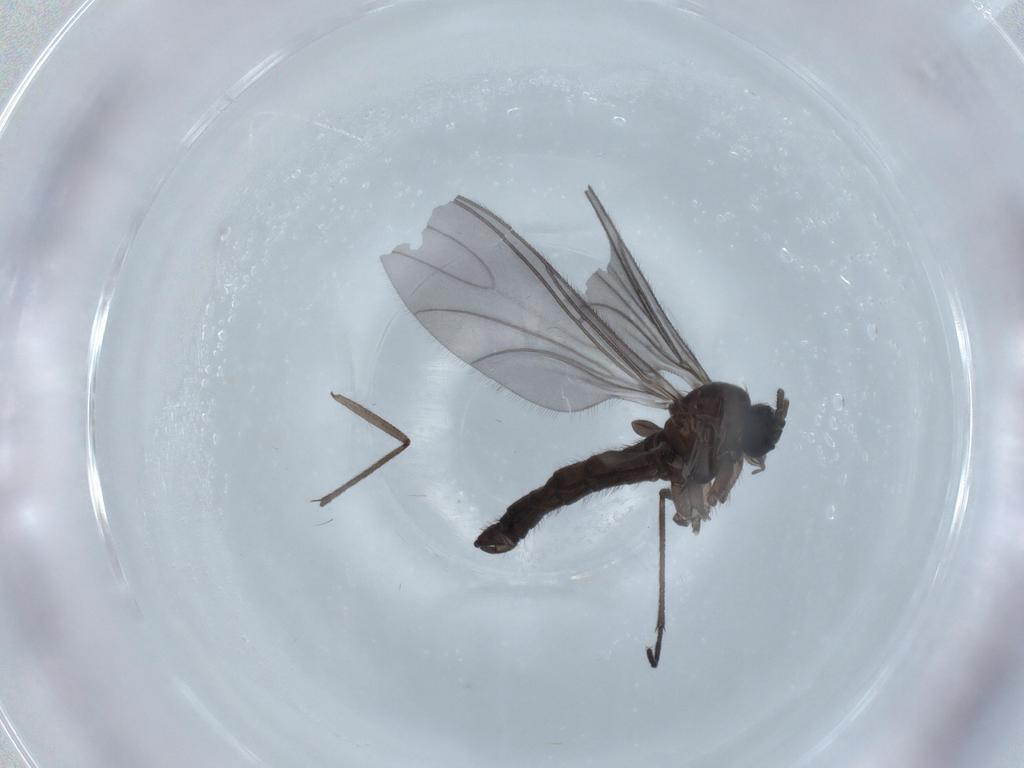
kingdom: Animalia
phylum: Arthropoda
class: Insecta
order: Diptera
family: Sciaridae
